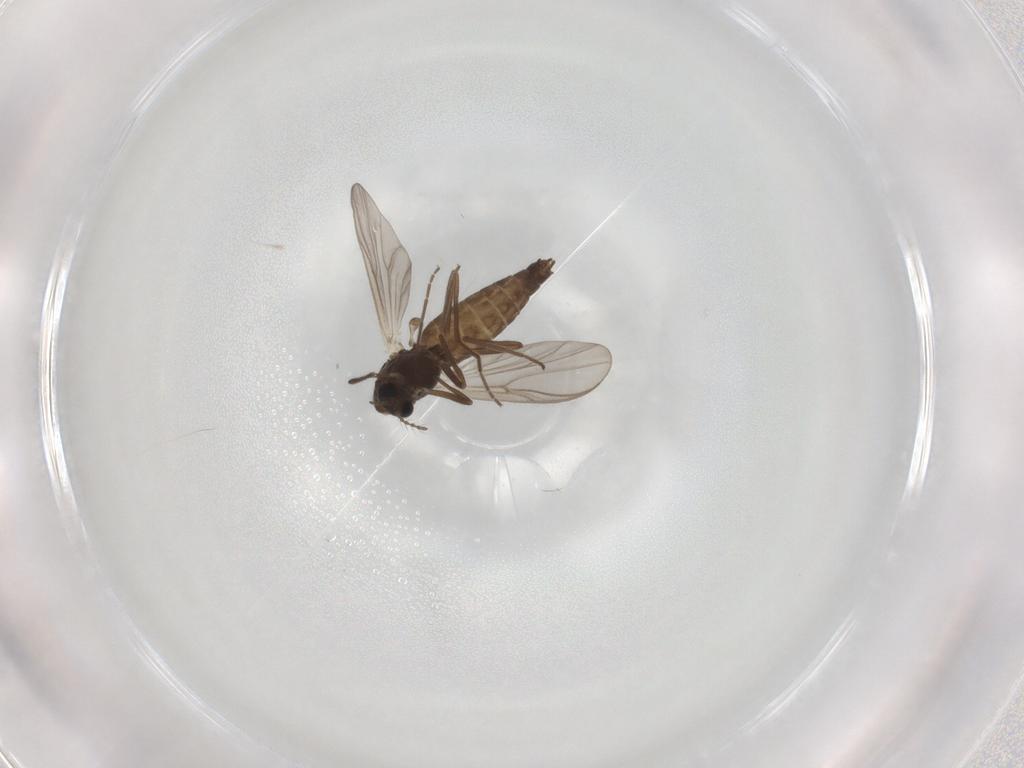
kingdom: Animalia
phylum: Arthropoda
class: Insecta
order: Diptera
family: Chironomidae
